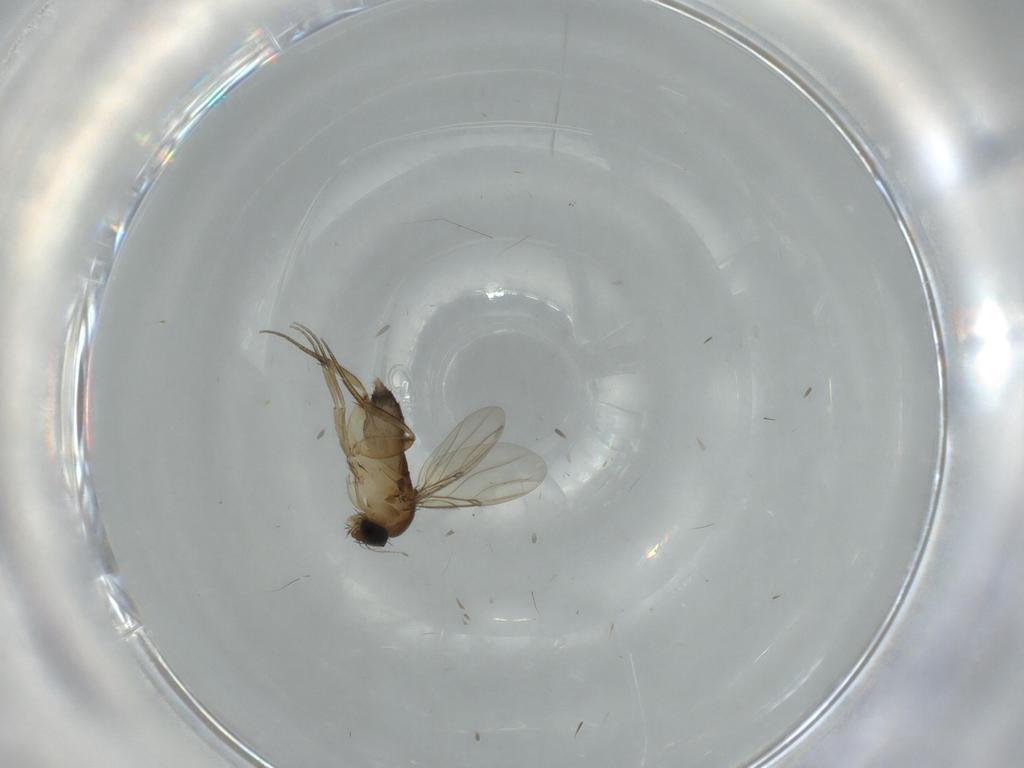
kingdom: Animalia
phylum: Arthropoda
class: Insecta
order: Diptera
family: Phoridae
